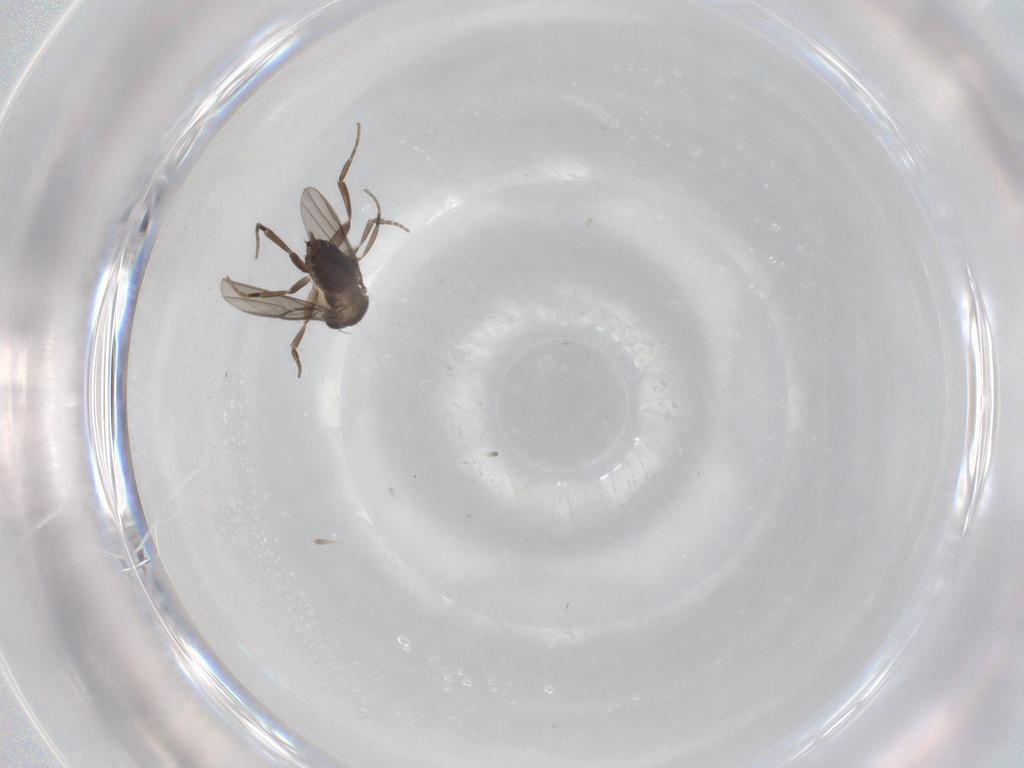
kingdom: Animalia
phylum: Arthropoda
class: Insecta
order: Diptera
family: Phoridae
